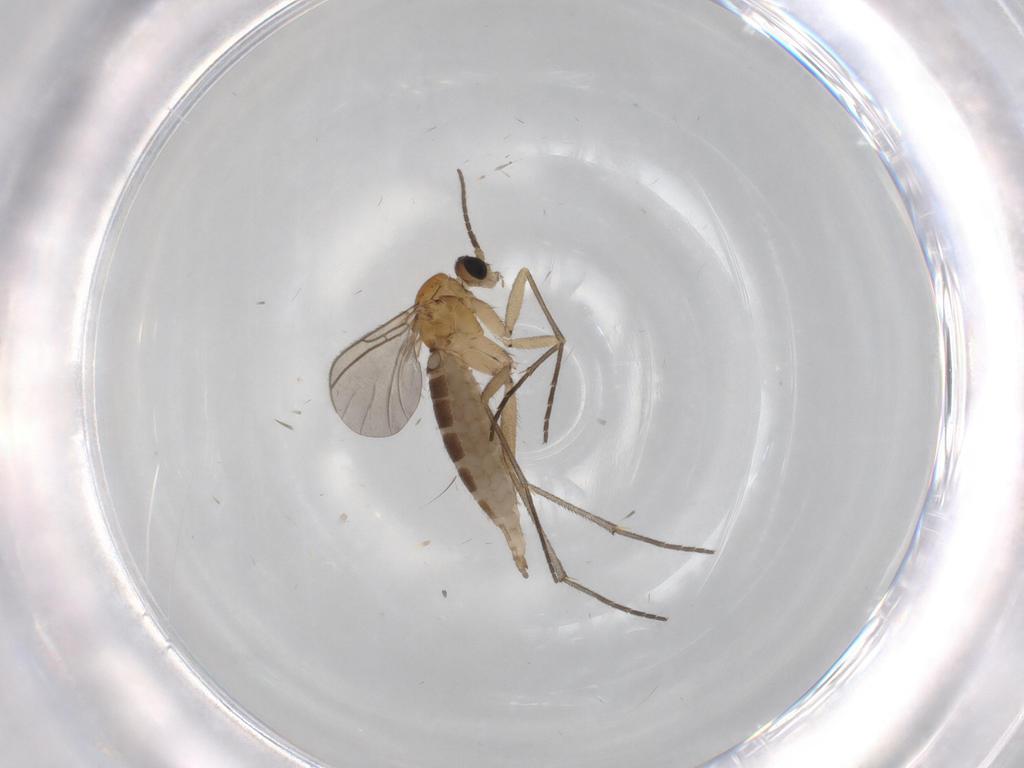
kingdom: Animalia
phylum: Arthropoda
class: Insecta
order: Diptera
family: Sciaridae
